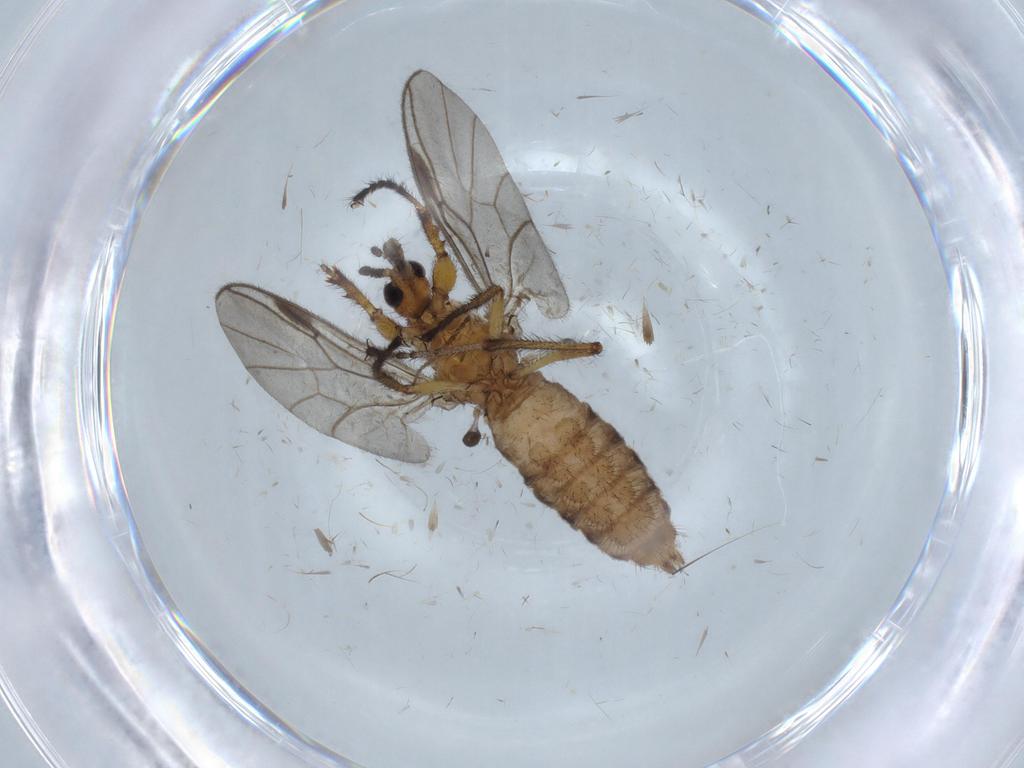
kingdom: Animalia
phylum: Arthropoda
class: Insecta
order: Diptera
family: Bibionidae
